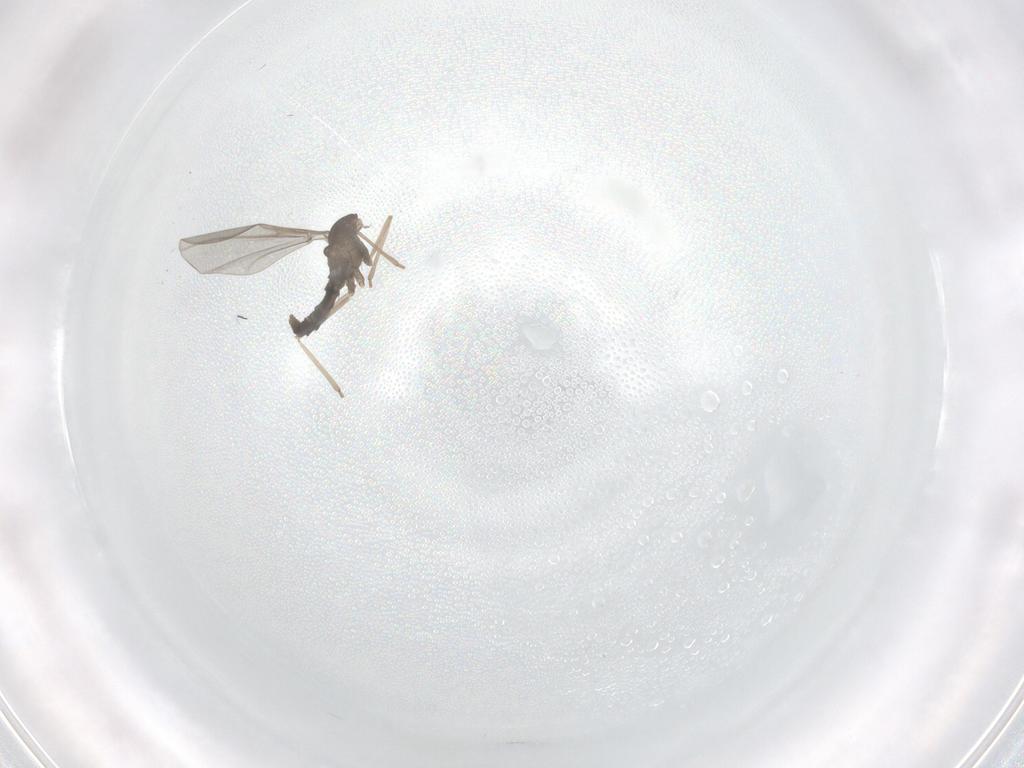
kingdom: Animalia
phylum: Arthropoda
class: Insecta
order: Diptera
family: Cecidomyiidae
